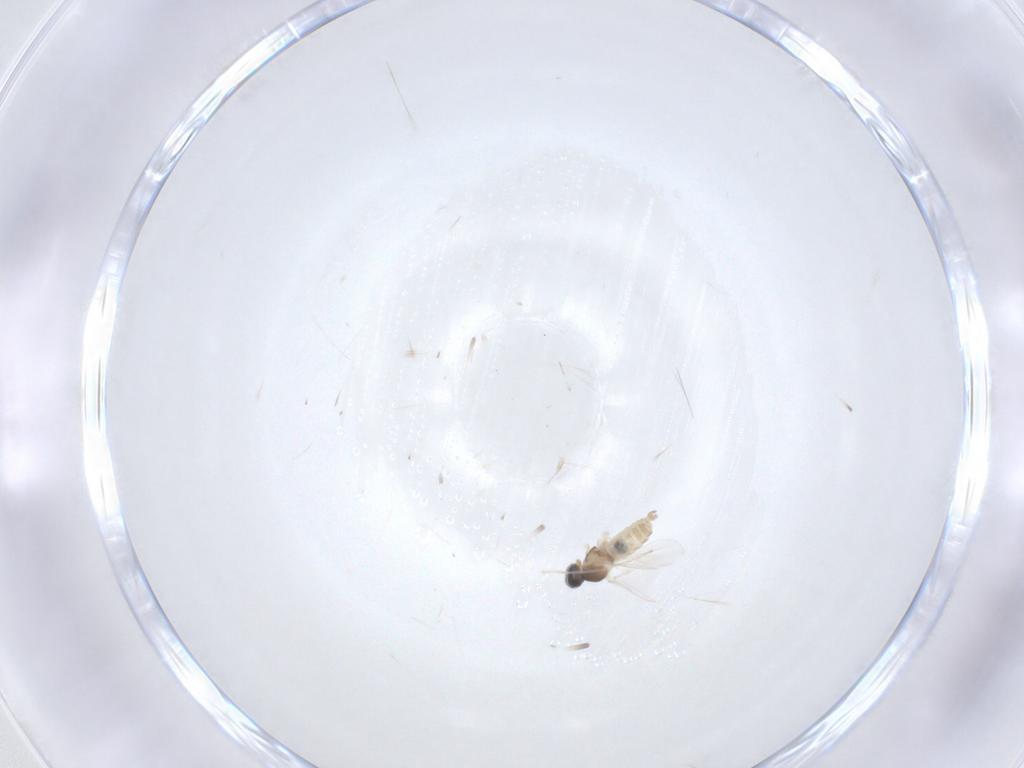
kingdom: Animalia
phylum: Arthropoda
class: Insecta
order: Diptera
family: Cecidomyiidae
